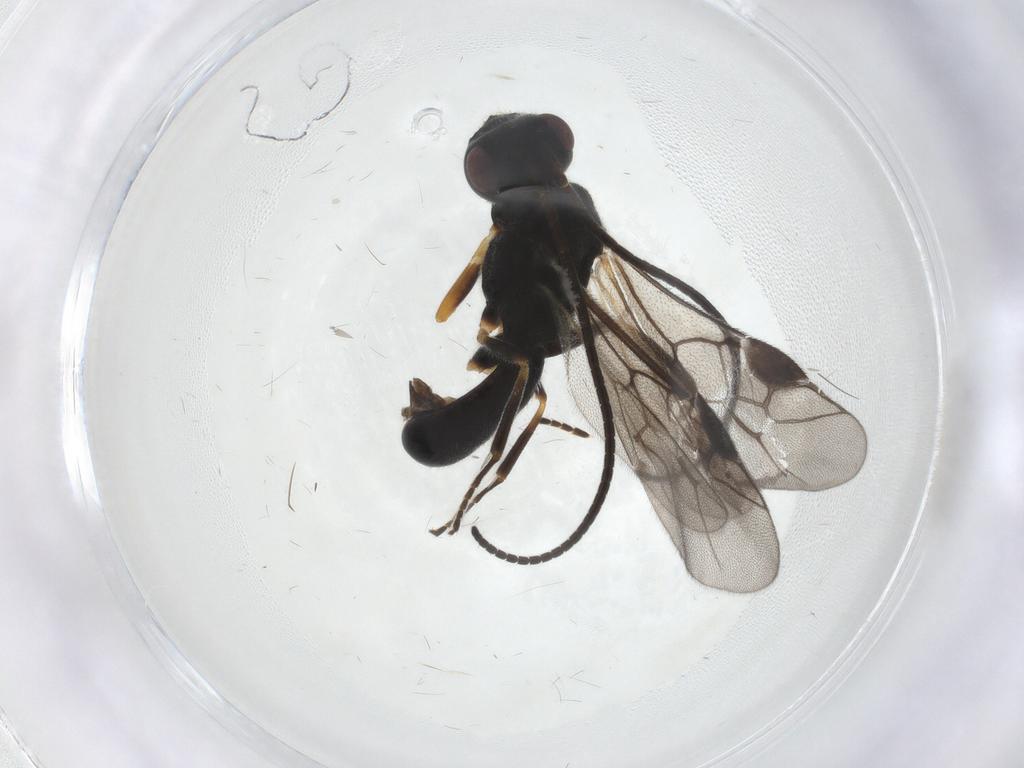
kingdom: Animalia
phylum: Arthropoda
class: Insecta
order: Hymenoptera
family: Braconidae
